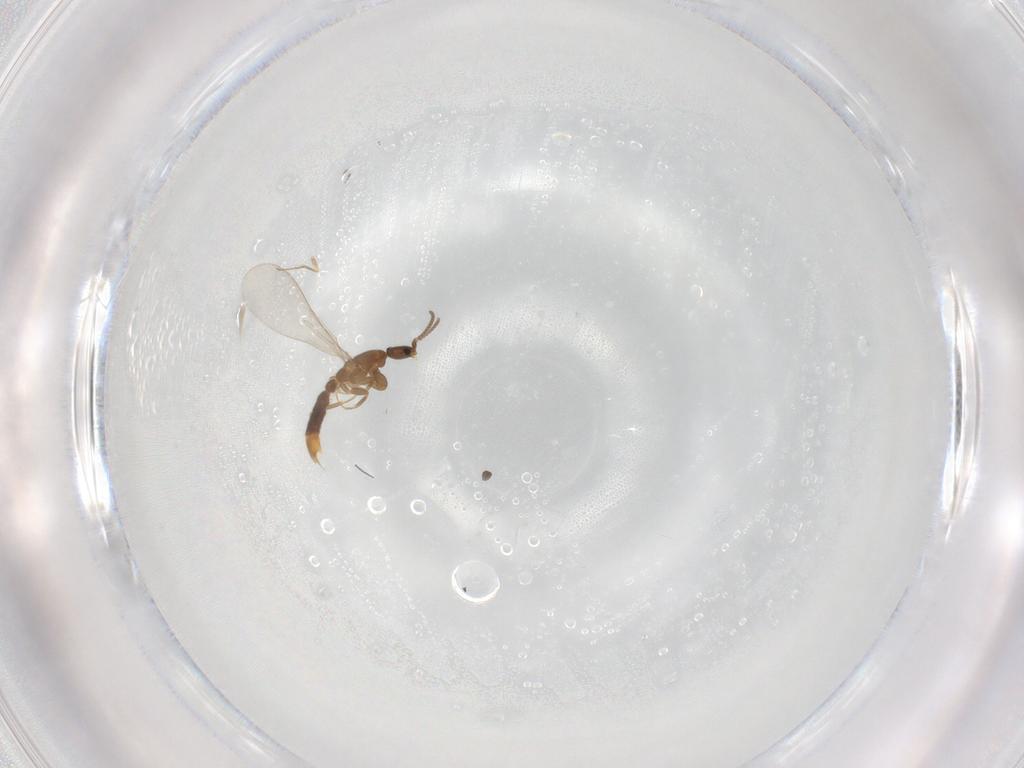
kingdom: Animalia
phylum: Arthropoda
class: Insecta
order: Hymenoptera
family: Formicidae
